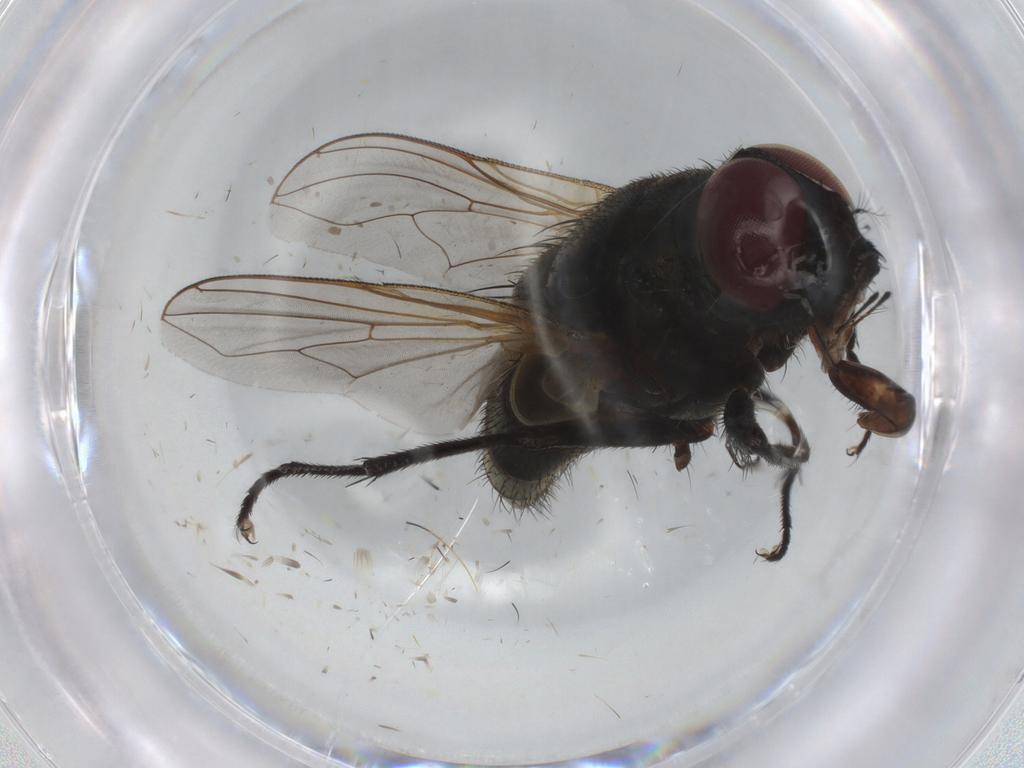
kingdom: Animalia
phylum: Arthropoda
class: Insecta
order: Diptera
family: Muscidae
